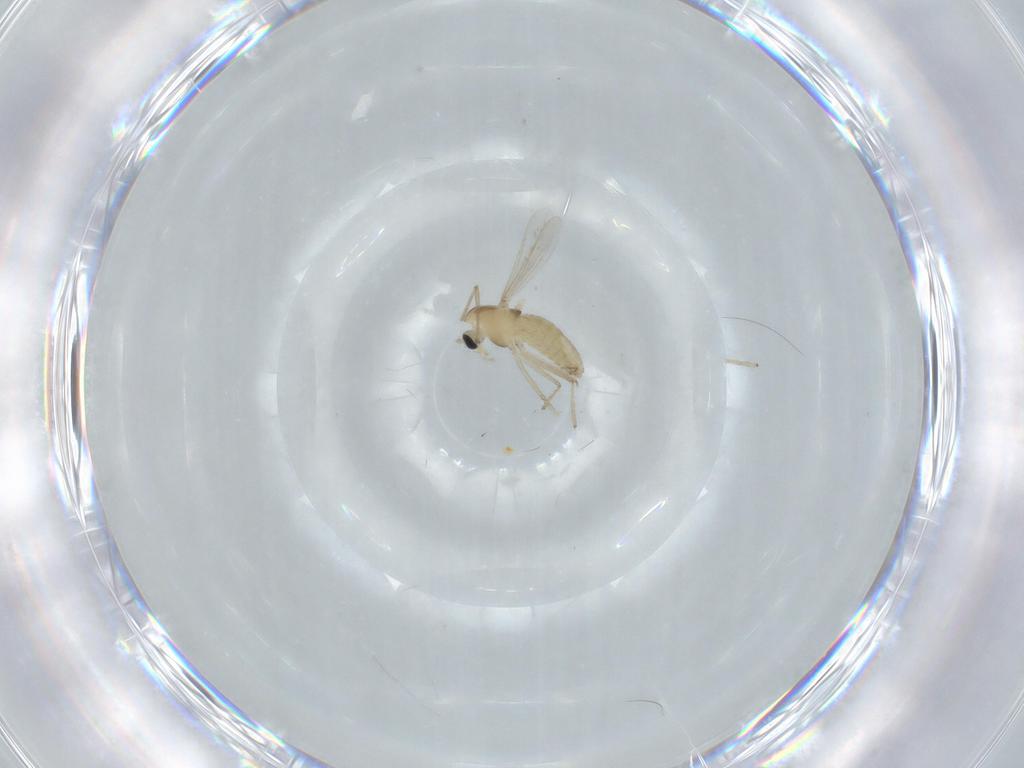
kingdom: Animalia
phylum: Arthropoda
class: Insecta
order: Diptera
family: Chironomidae
